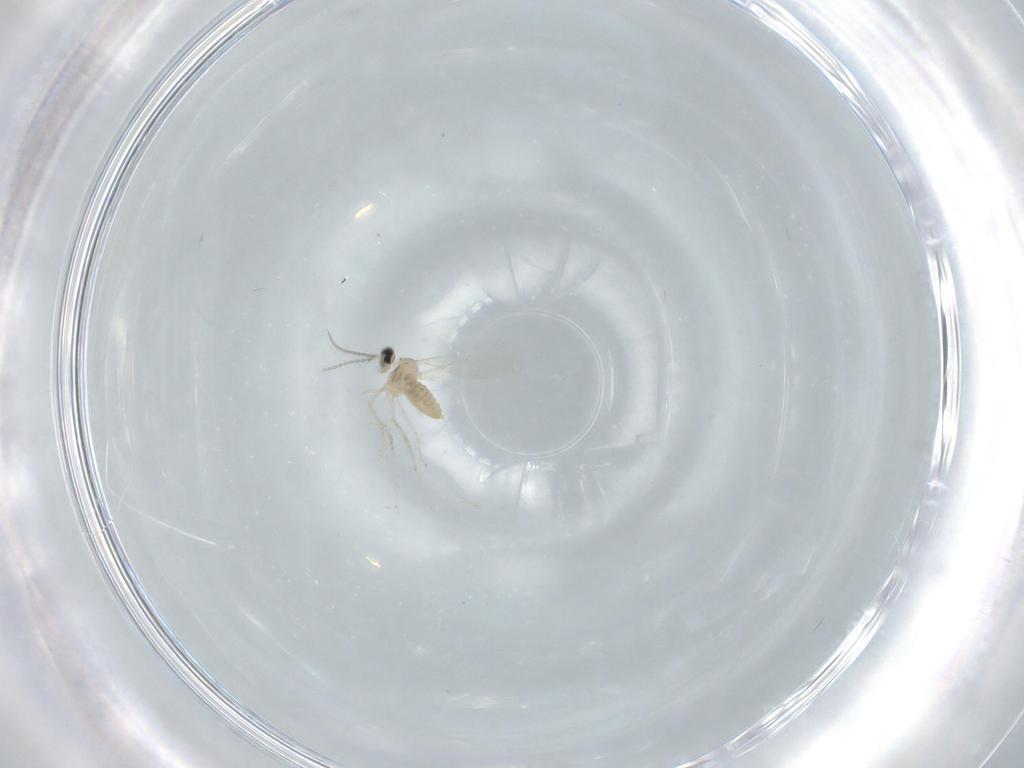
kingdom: Animalia
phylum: Arthropoda
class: Insecta
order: Diptera
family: Cecidomyiidae
